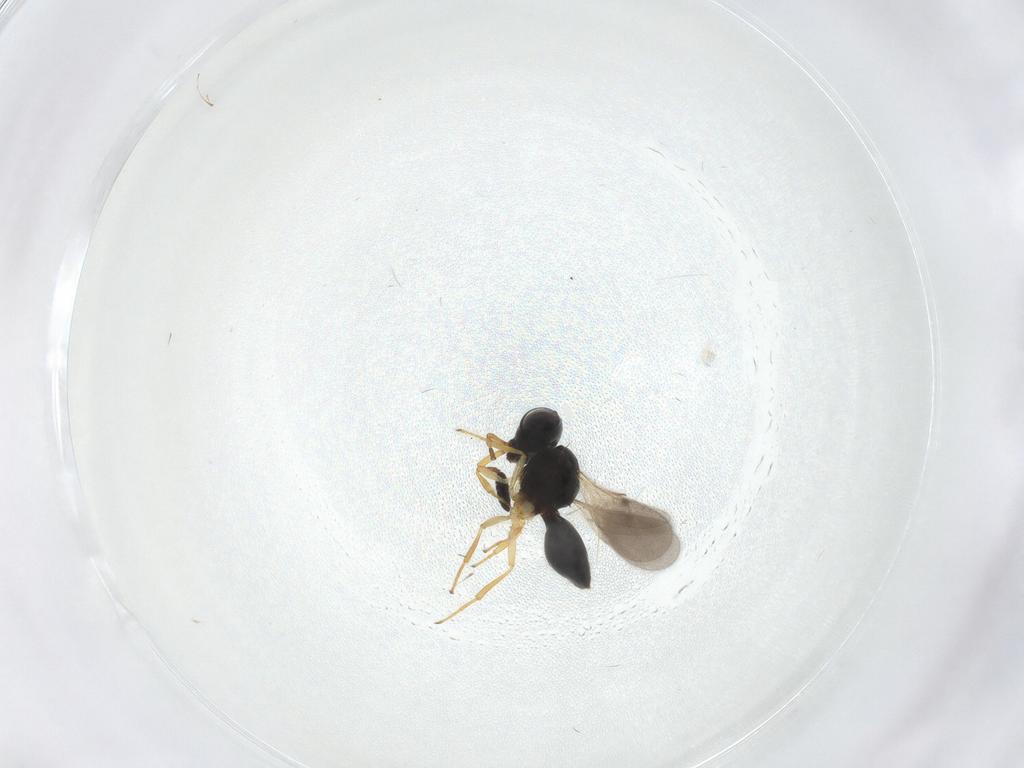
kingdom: Animalia
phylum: Arthropoda
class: Insecta
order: Hymenoptera
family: Scelionidae
